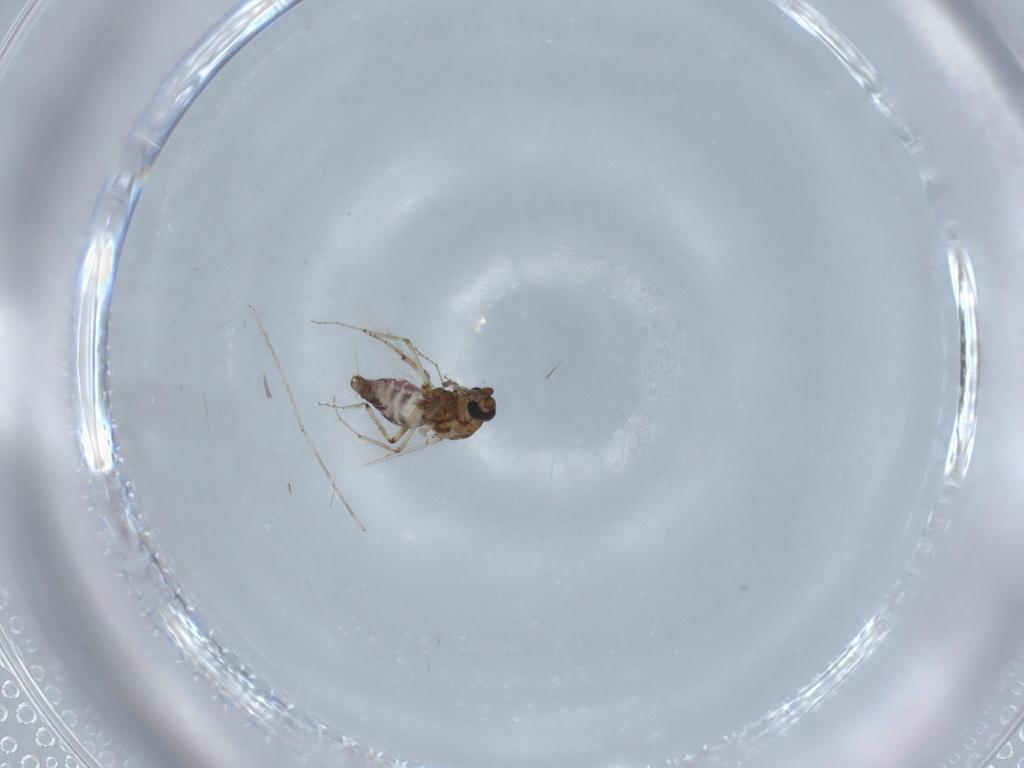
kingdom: Animalia
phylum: Arthropoda
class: Insecta
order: Diptera
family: Ceratopogonidae
